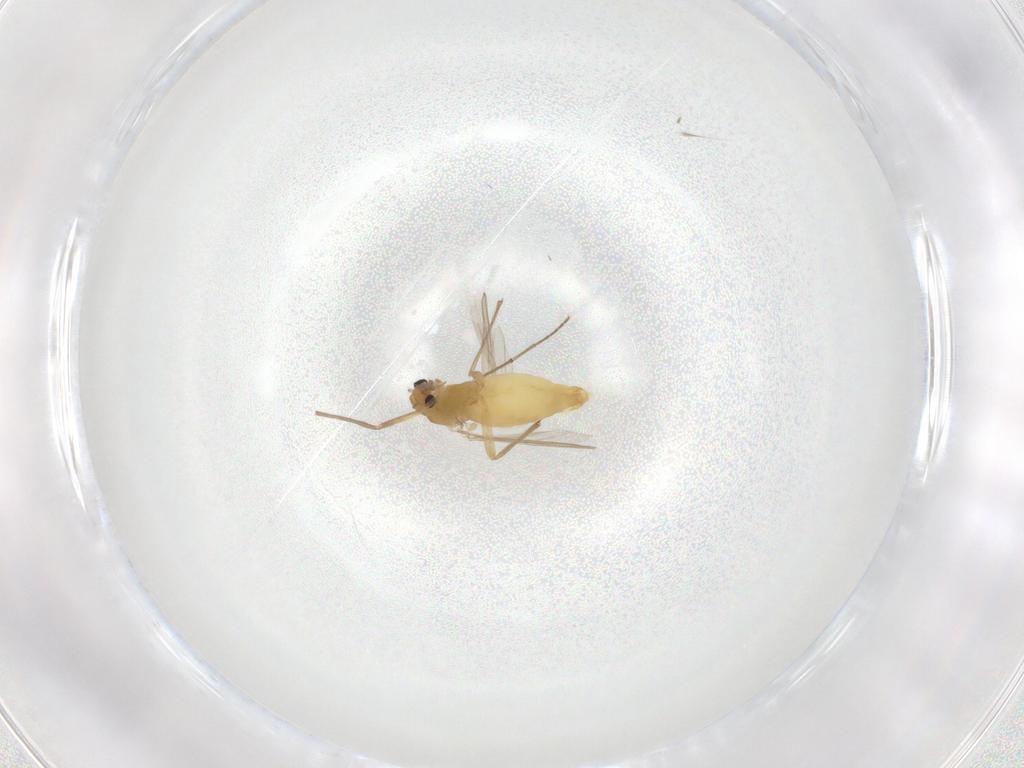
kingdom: Animalia
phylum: Arthropoda
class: Insecta
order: Diptera
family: Chironomidae
